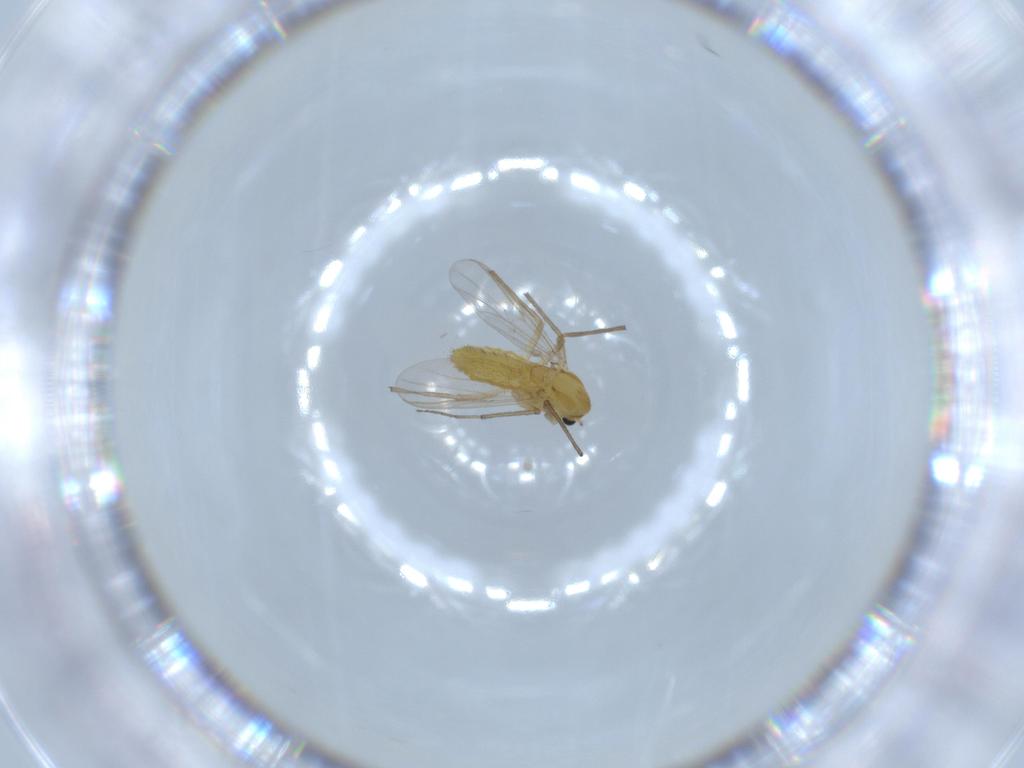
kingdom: Animalia
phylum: Arthropoda
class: Insecta
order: Diptera
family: Chironomidae
